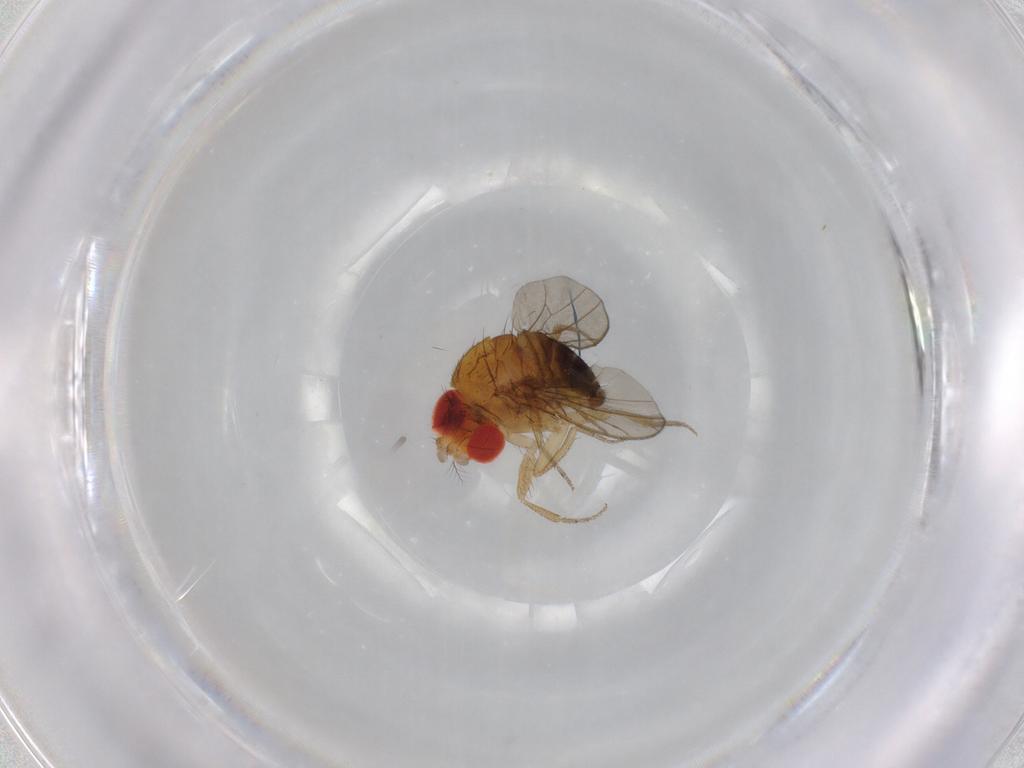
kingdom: Animalia
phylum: Arthropoda
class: Insecta
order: Diptera
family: Drosophilidae
